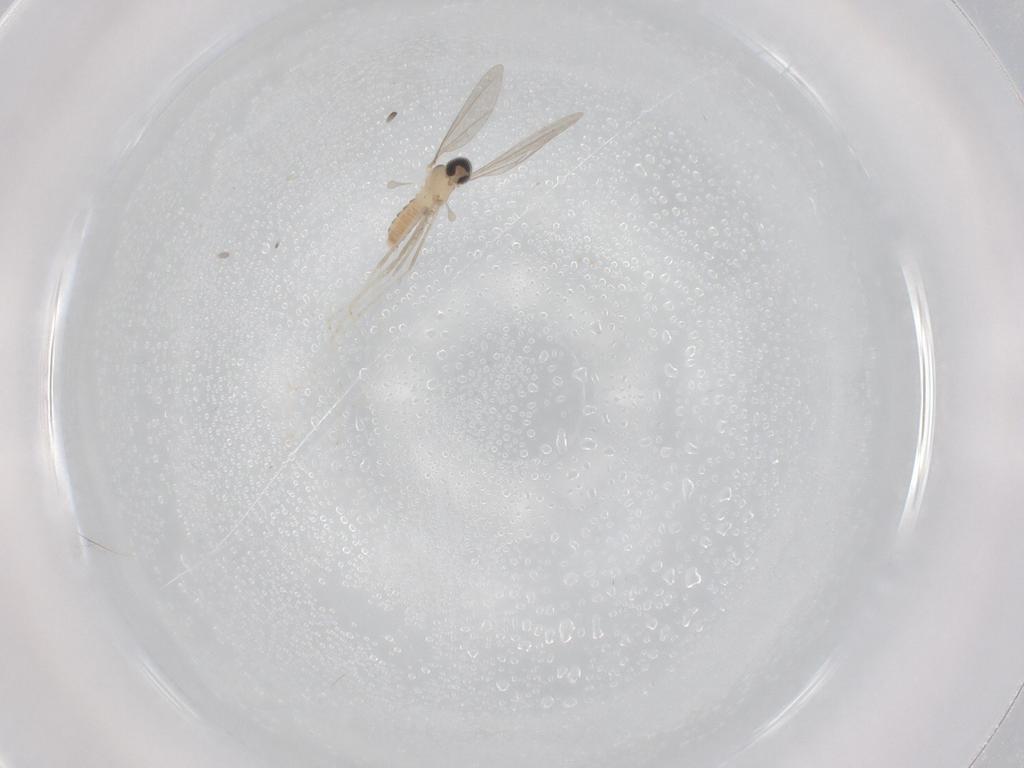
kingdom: Animalia
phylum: Arthropoda
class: Insecta
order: Diptera
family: Cecidomyiidae
